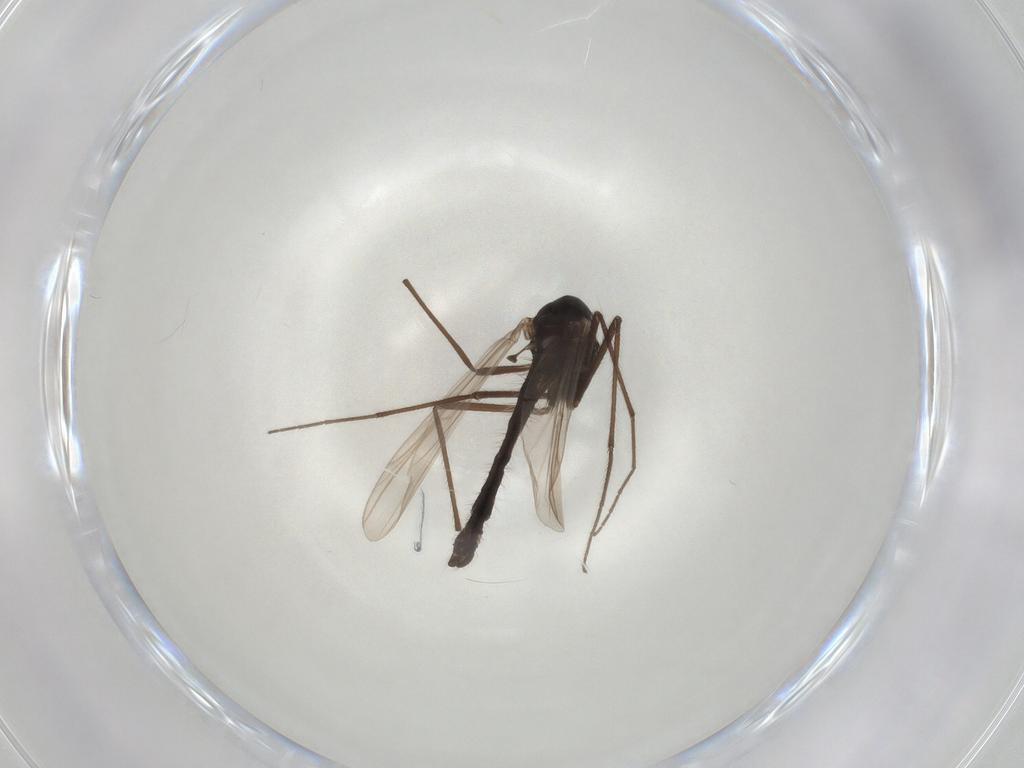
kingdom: Animalia
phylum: Arthropoda
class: Insecta
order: Diptera
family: Chironomidae
